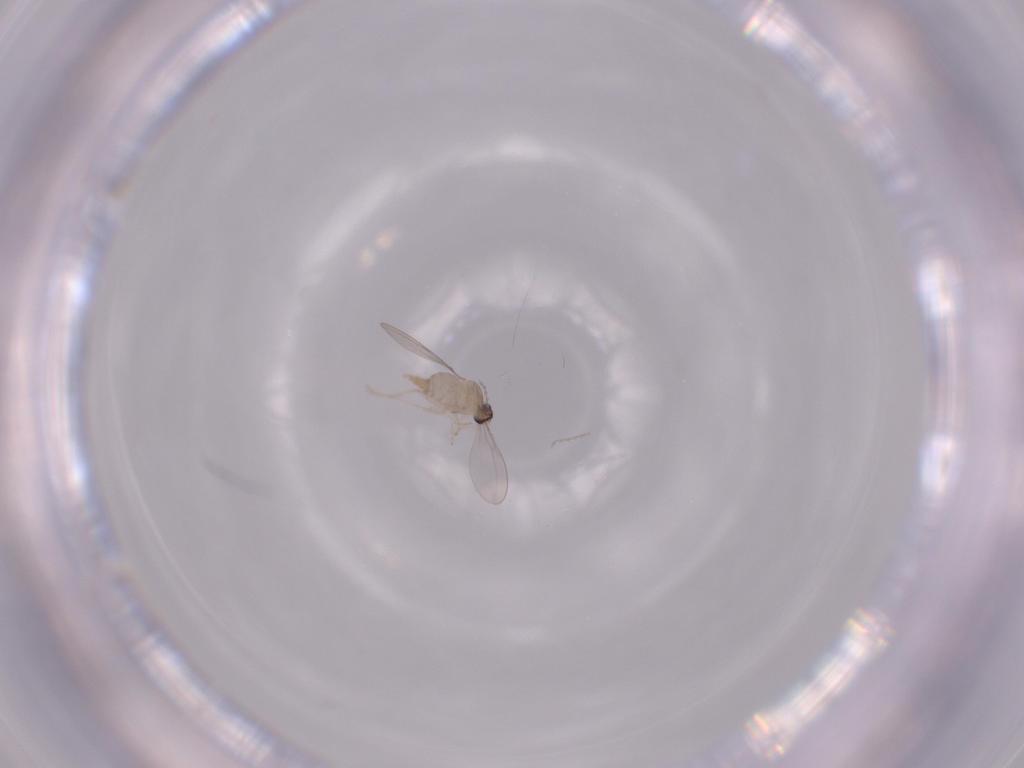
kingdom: Animalia
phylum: Arthropoda
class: Insecta
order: Diptera
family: Cecidomyiidae
